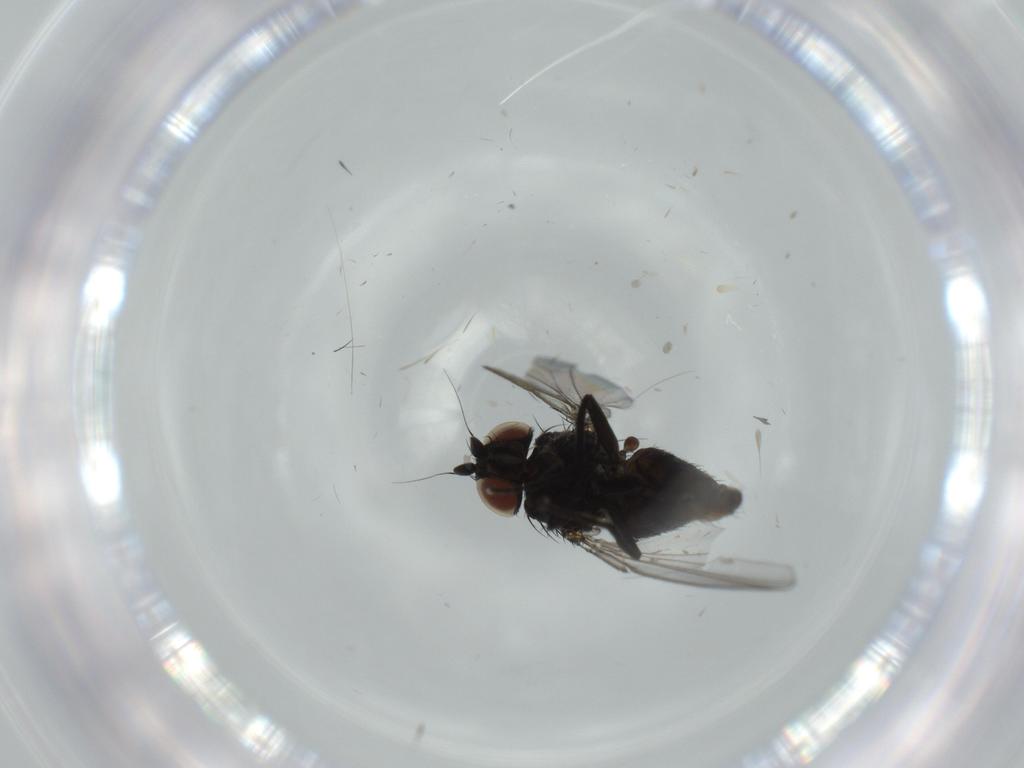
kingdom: Animalia
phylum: Arthropoda
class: Insecta
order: Diptera
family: Milichiidae
